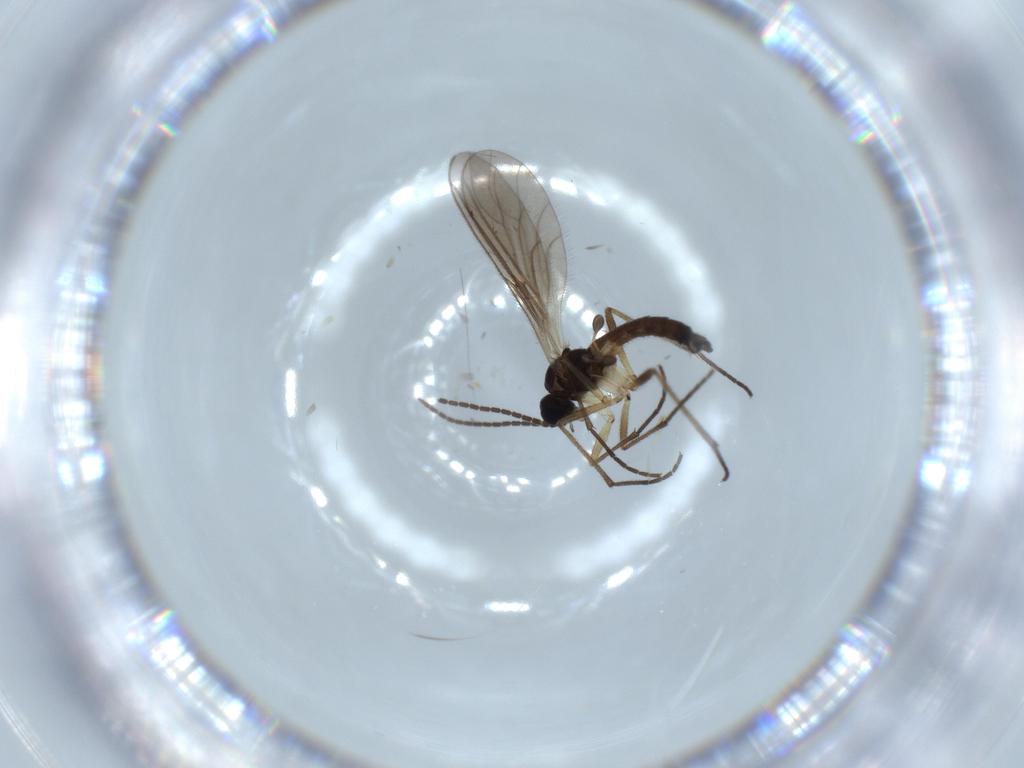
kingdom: Animalia
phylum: Arthropoda
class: Insecta
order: Diptera
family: Sciaridae
